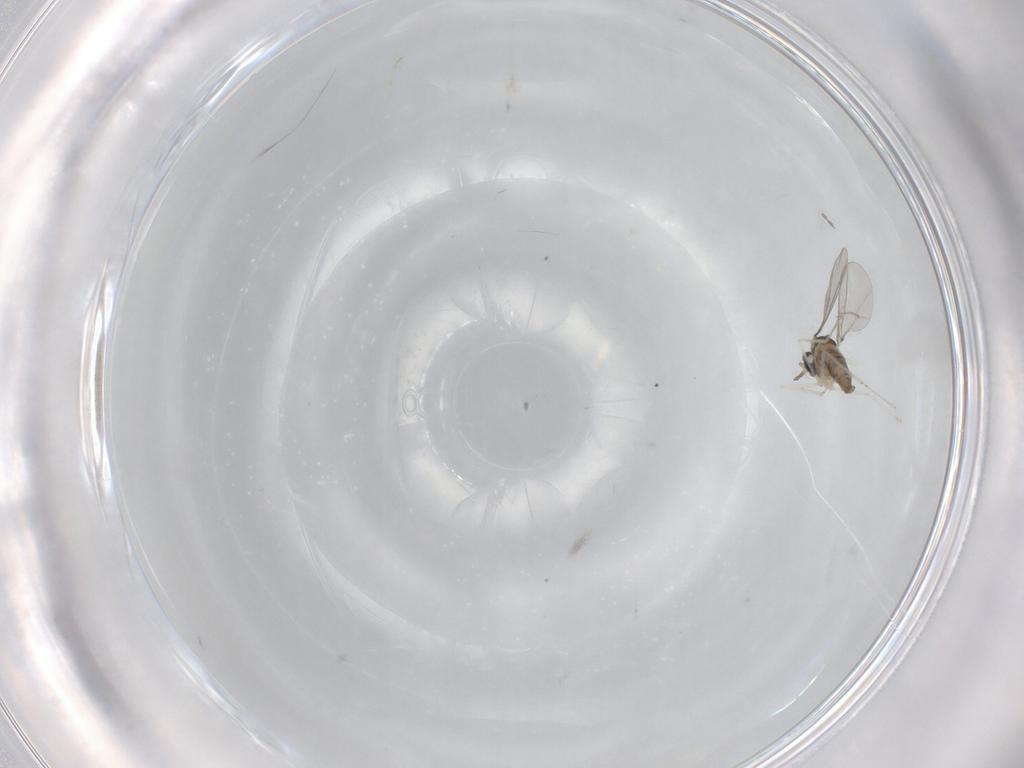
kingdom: Animalia
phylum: Arthropoda
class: Insecta
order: Diptera
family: Cecidomyiidae
